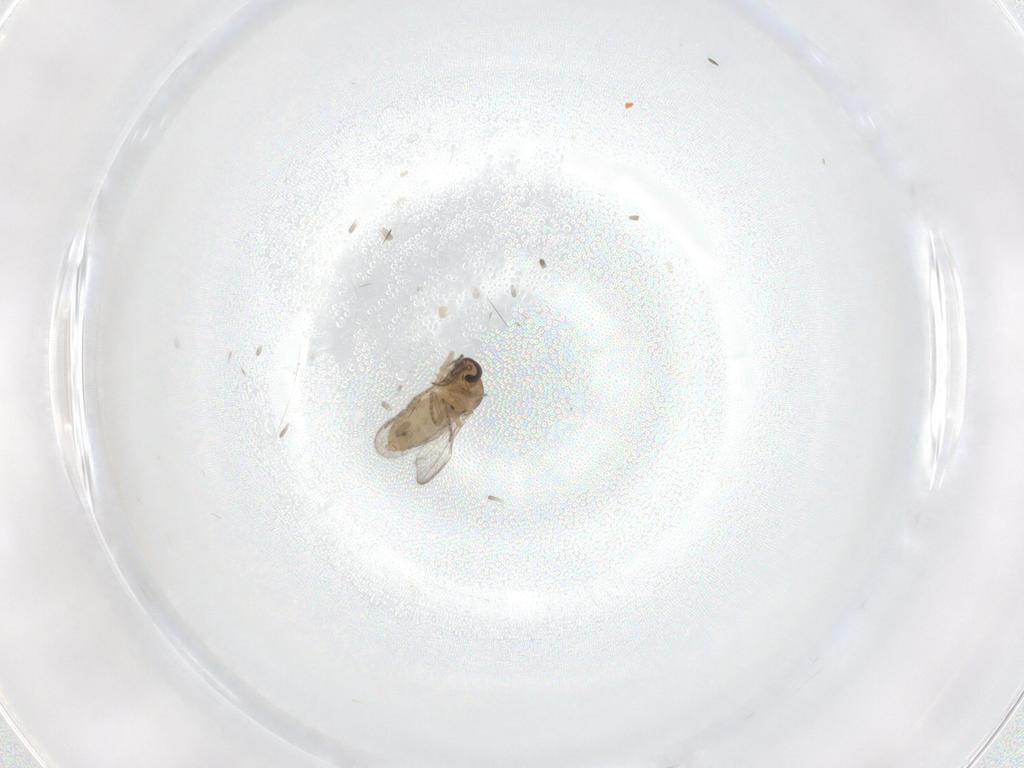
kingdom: Animalia
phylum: Arthropoda
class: Insecta
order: Diptera
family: Ceratopogonidae
